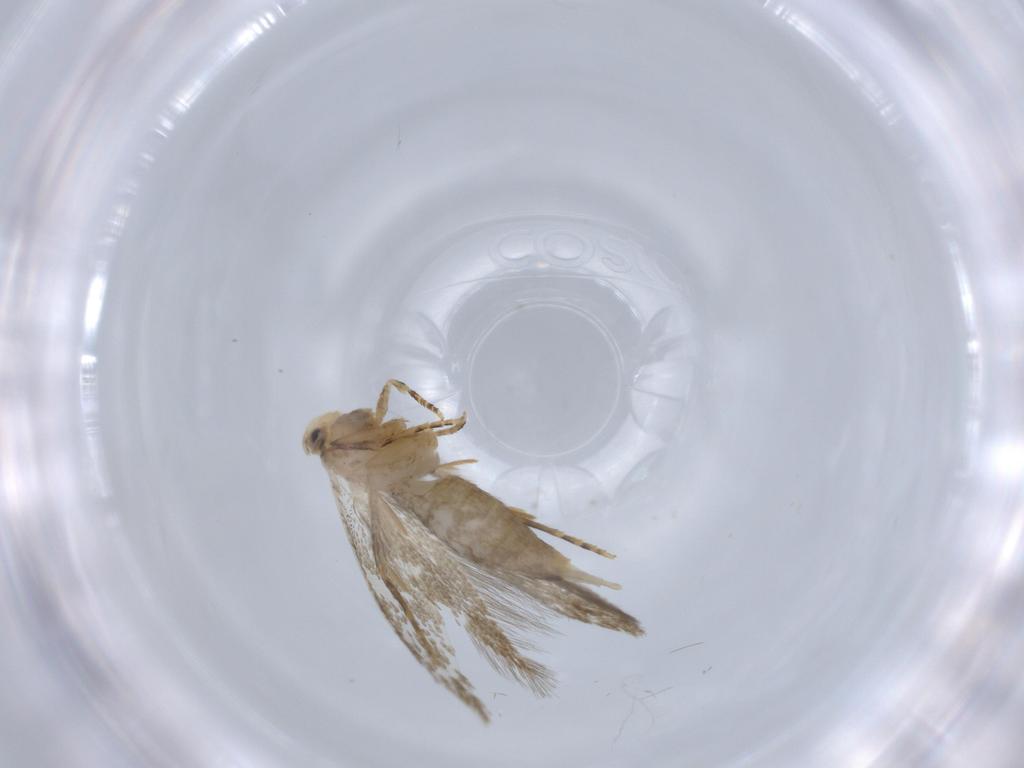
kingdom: Animalia
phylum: Arthropoda
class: Insecta
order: Lepidoptera
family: Tineidae
